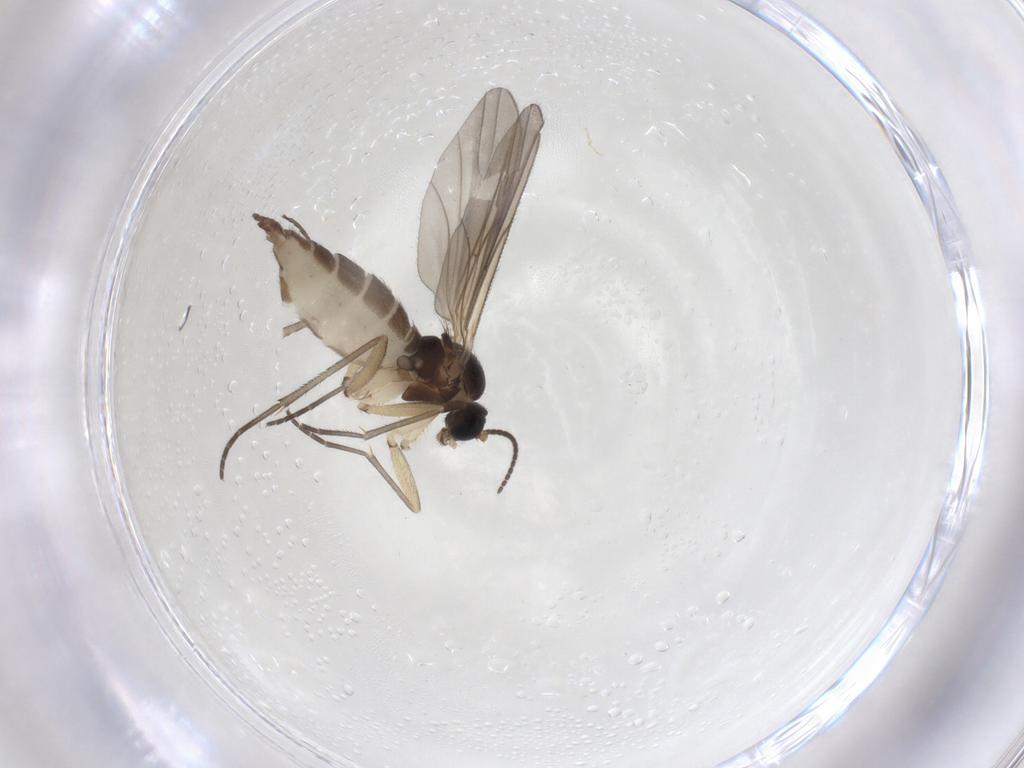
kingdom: Animalia
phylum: Arthropoda
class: Insecta
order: Diptera
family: Sciaridae
